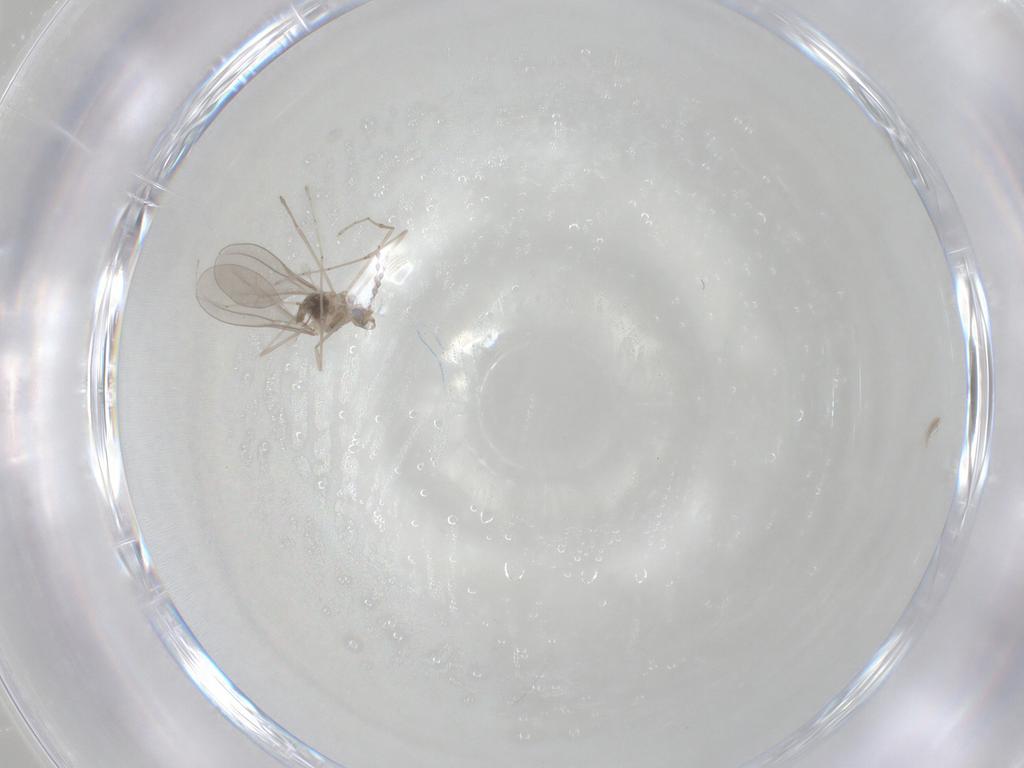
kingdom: Animalia
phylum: Arthropoda
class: Insecta
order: Diptera
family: Cecidomyiidae
